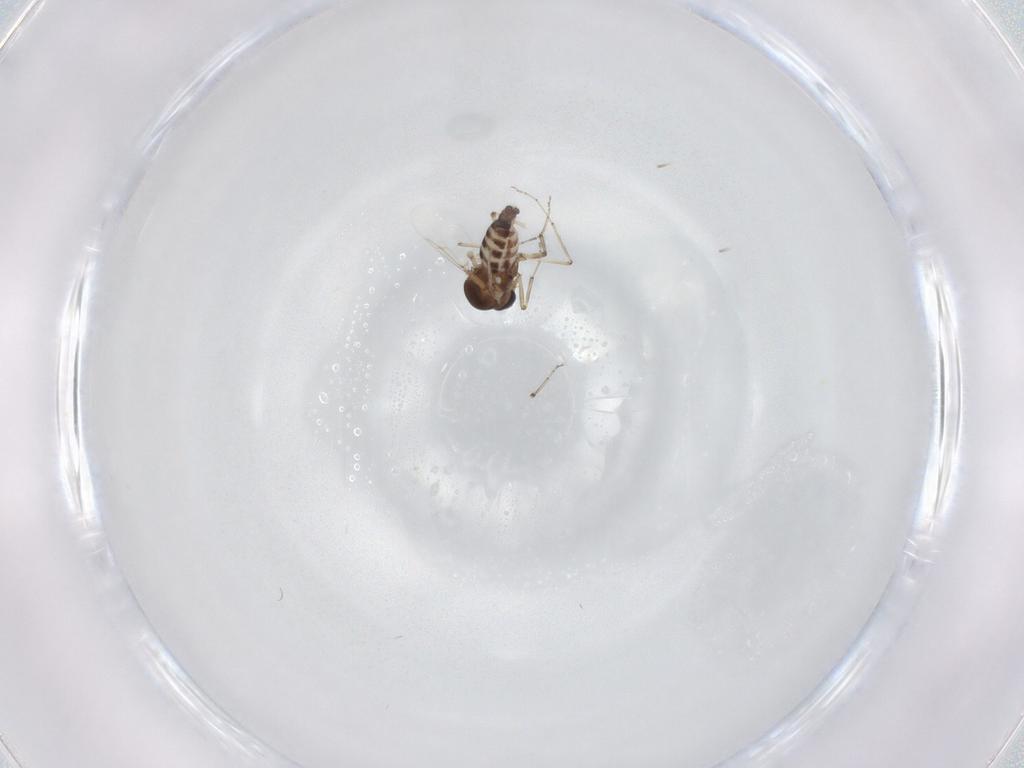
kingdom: Animalia
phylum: Arthropoda
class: Insecta
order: Diptera
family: Ceratopogonidae
